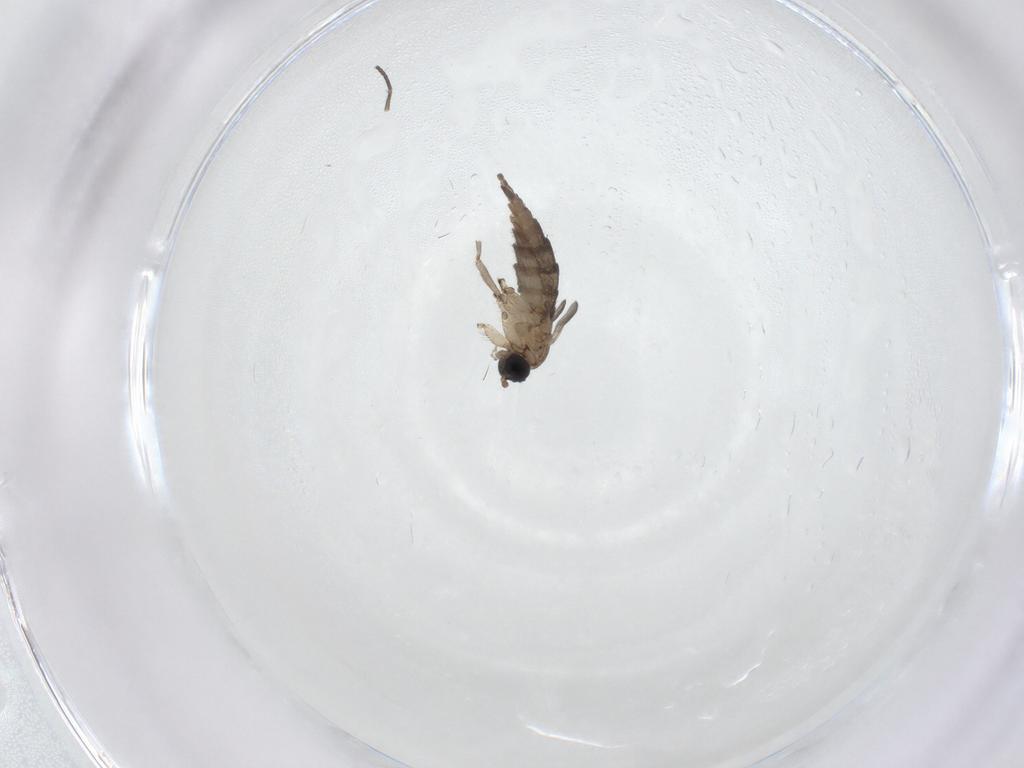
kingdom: Animalia
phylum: Arthropoda
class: Insecta
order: Diptera
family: Sciaridae
